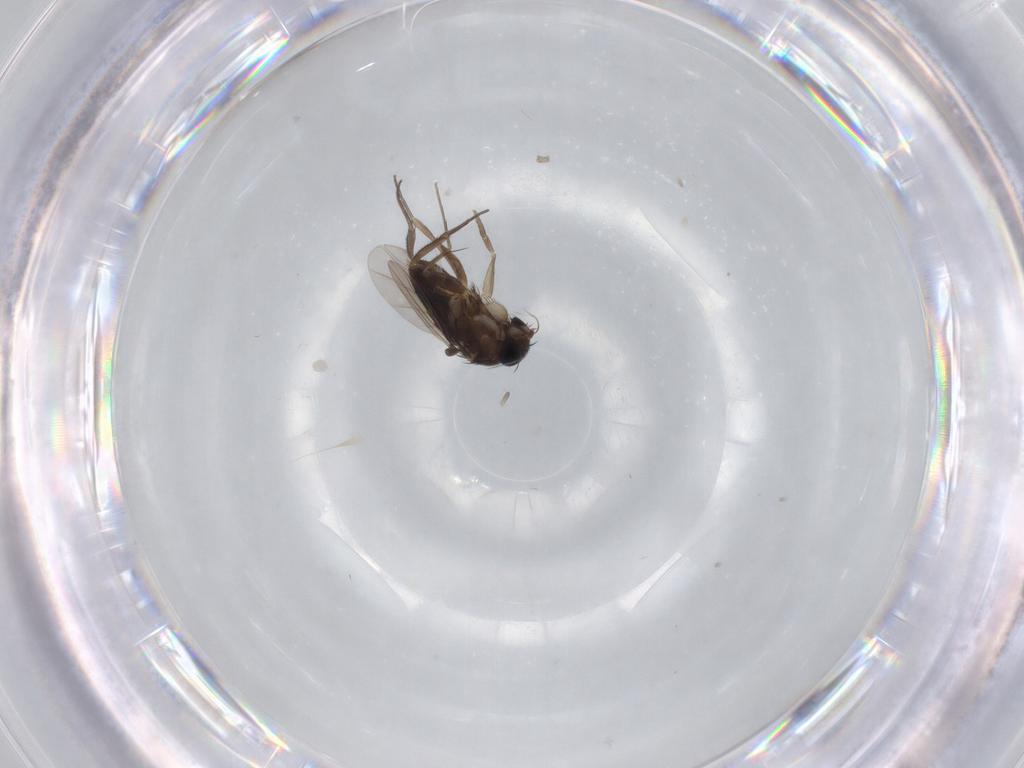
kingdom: Animalia
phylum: Arthropoda
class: Insecta
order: Diptera
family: Phoridae
